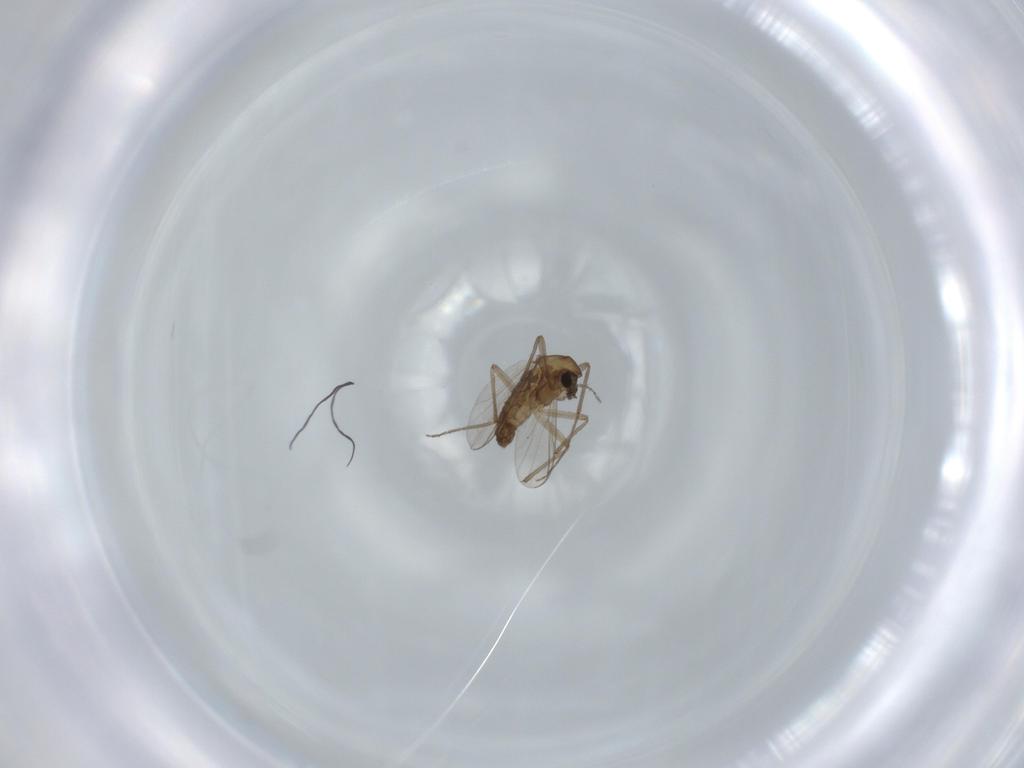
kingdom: Animalia
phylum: Arthropoda
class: Insecta
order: Diptera
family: Chironomidae
